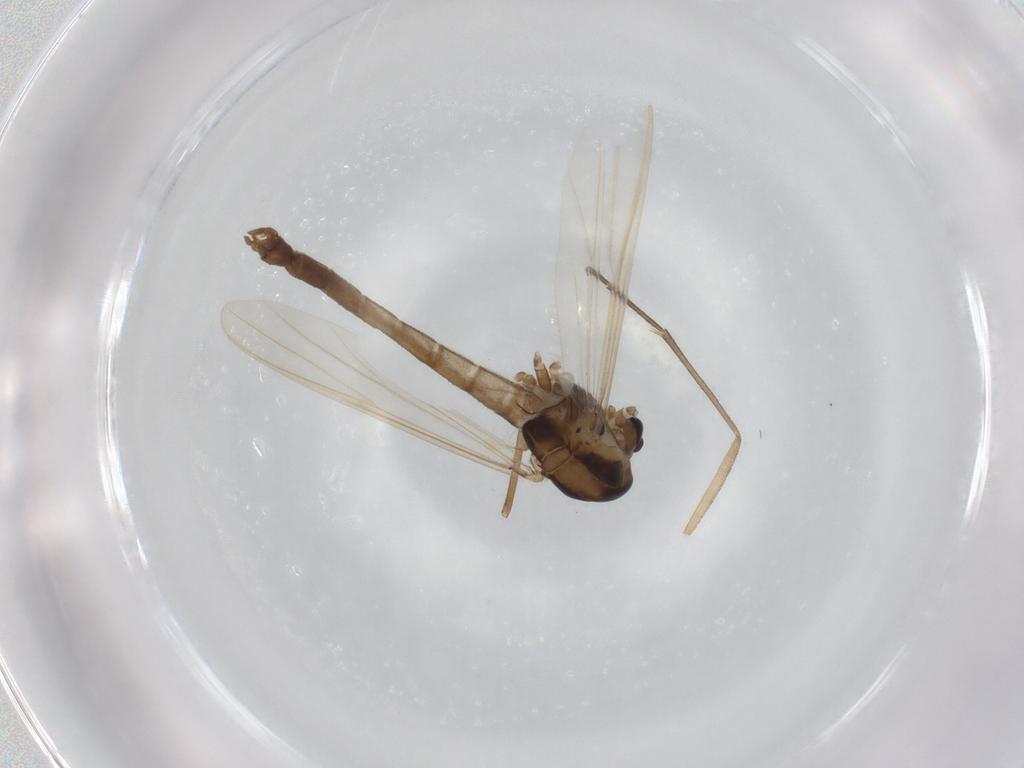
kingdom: Animalia
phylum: Arthropoda
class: Insecta
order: Diptera
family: Sciaridae
